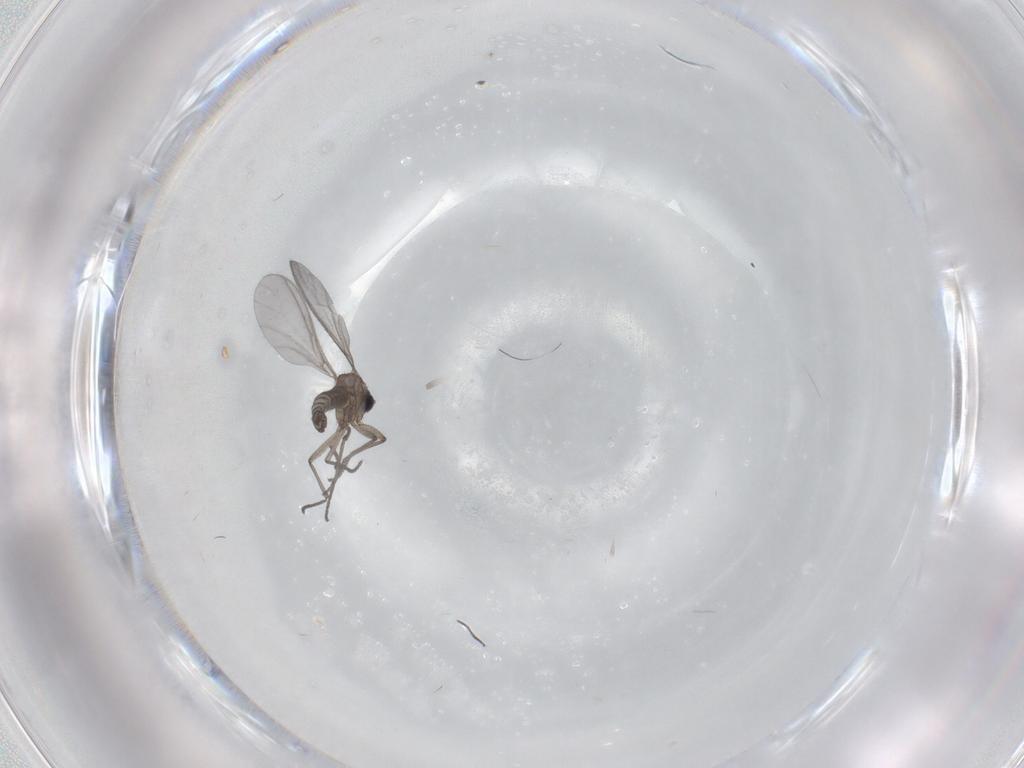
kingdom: Animalia
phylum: Arthropoda
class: Insecta
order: Diptera
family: Sciaridae
